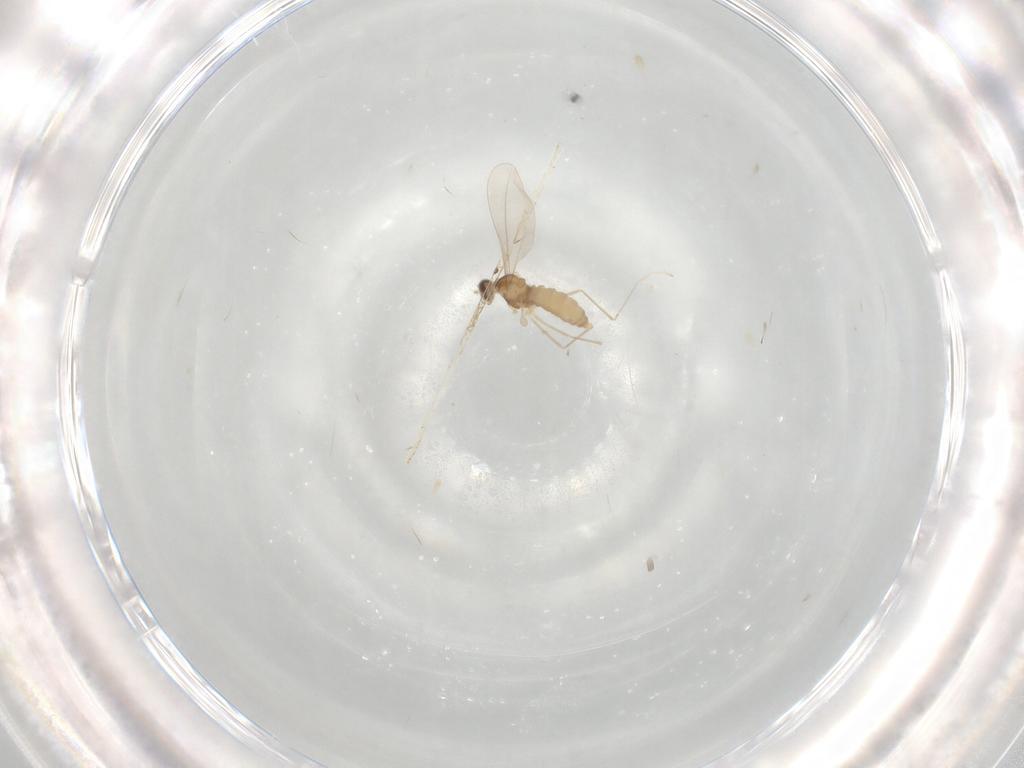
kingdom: Animalia
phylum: Arthropoda
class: Insecta
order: Diptera
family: Cecidomyiidae
